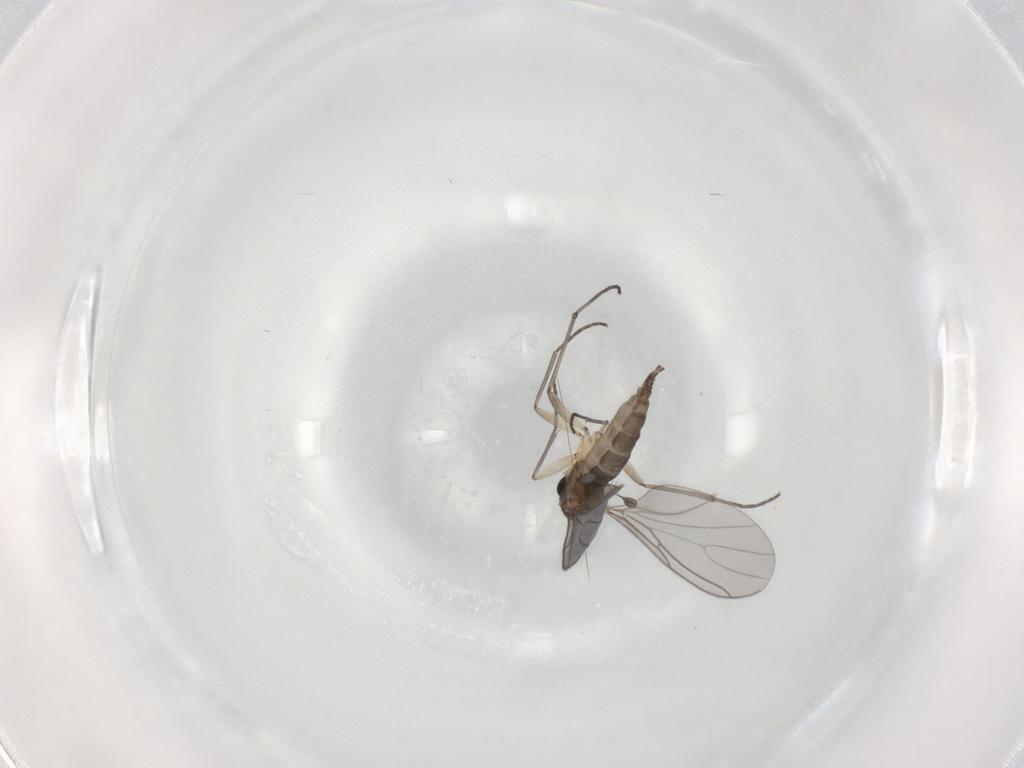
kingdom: Animalia
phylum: Arthropoda
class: Insecta
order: Diptera
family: Sciaridae
